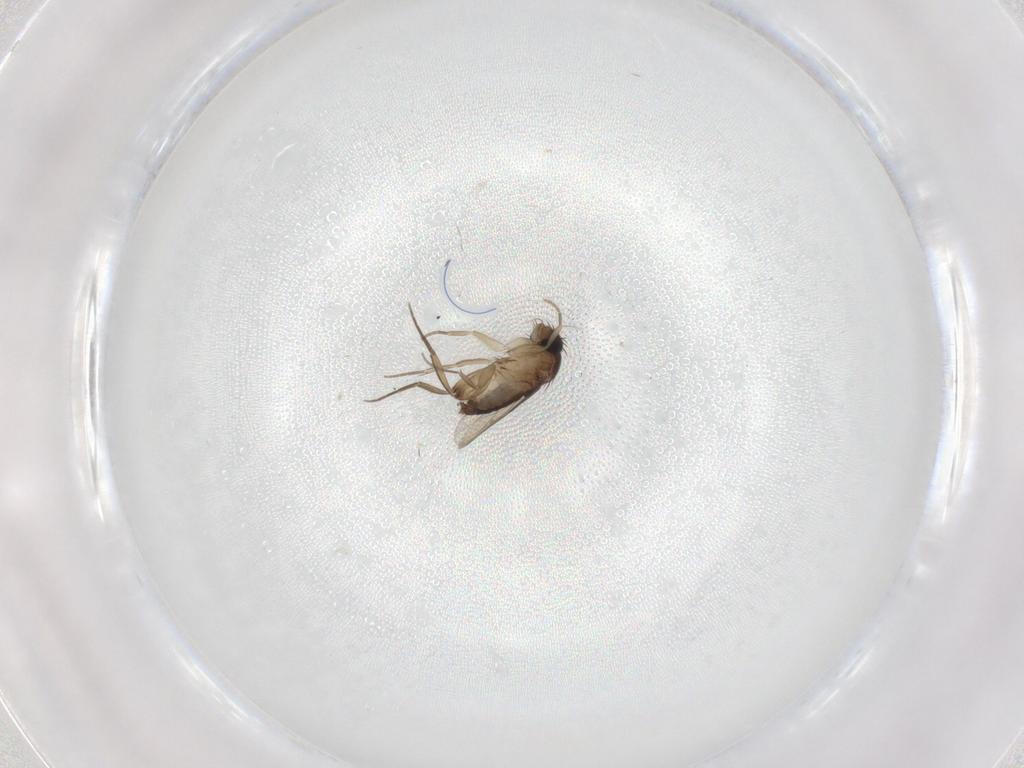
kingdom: Animalia
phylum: Arthropoda
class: Insecta
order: Diptera
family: Phoridae
